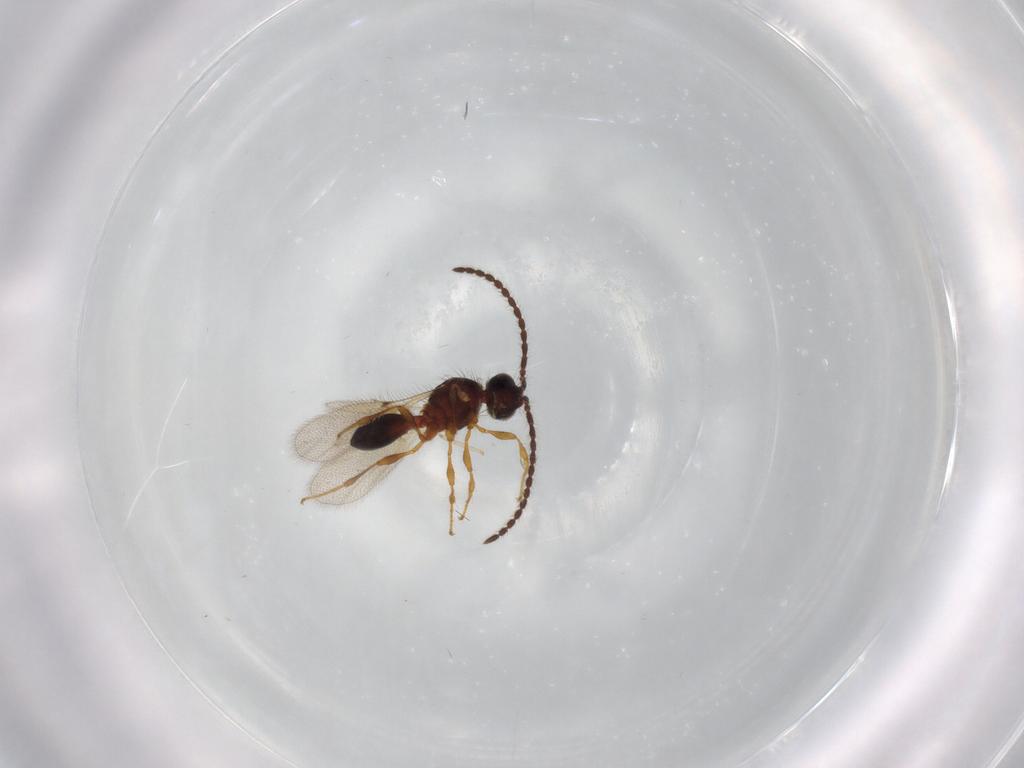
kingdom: Animalia
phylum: Arthropoda
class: Insecta
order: Hymenoptera
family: Diapriidae
